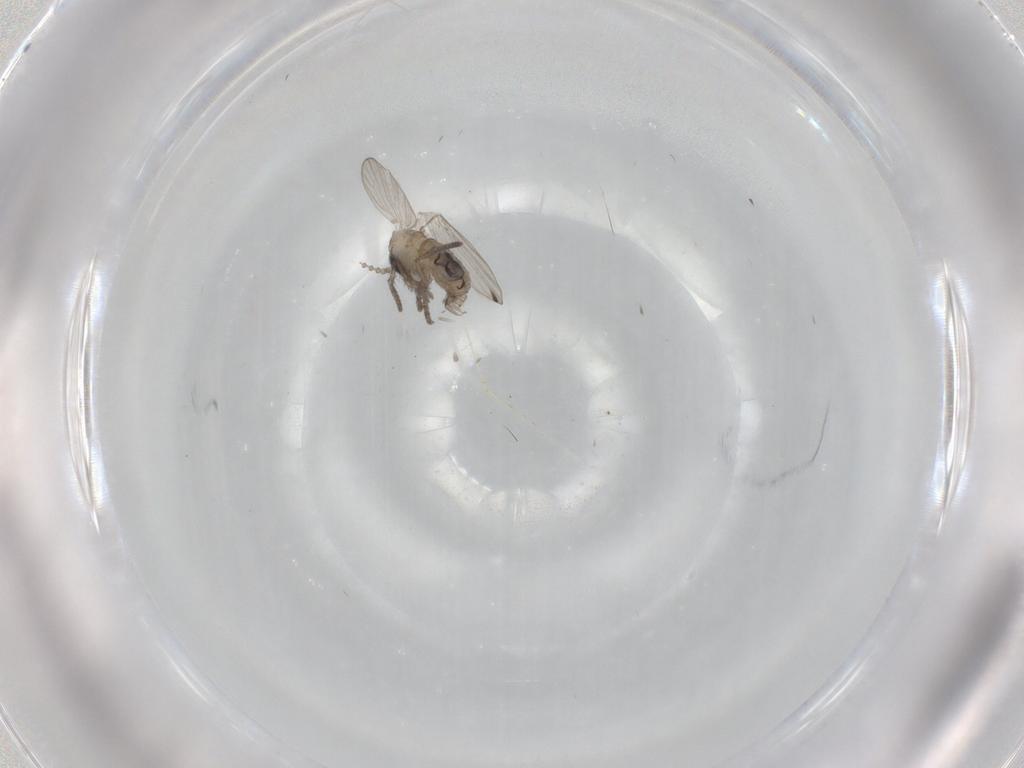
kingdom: Animalia
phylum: Arthropoda
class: Insecta
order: Diptera
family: Psychodidae
